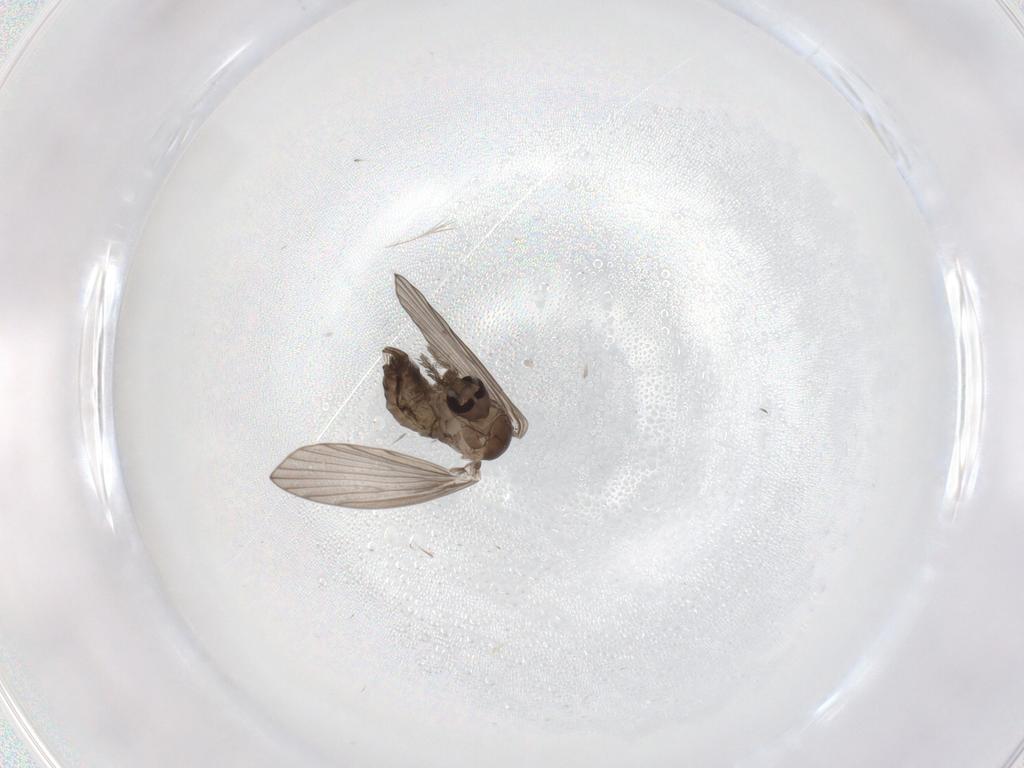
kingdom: Animalia
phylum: Arthropoda
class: Insecta
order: Diptera
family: Psychodidae
